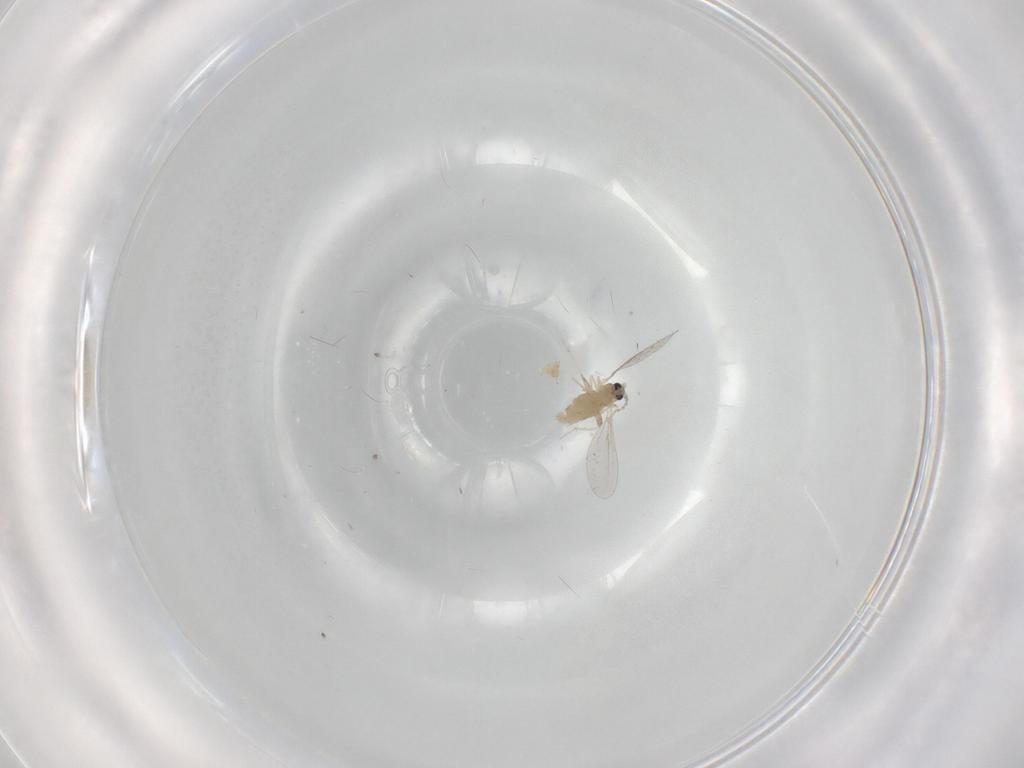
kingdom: Animalia
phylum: Arthropoda
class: Insecta
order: Diptera
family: Cecidomyiidae
